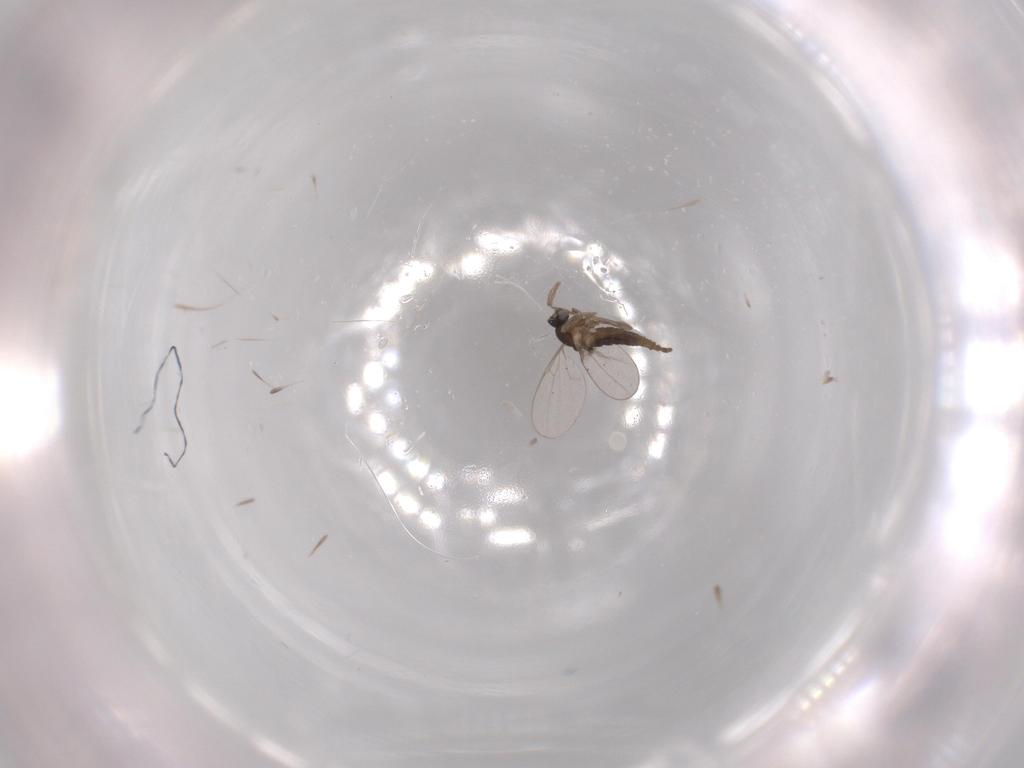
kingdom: Animalia
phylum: Arthropoda
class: Insecta
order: Diptera
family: Cecidomyiidae
